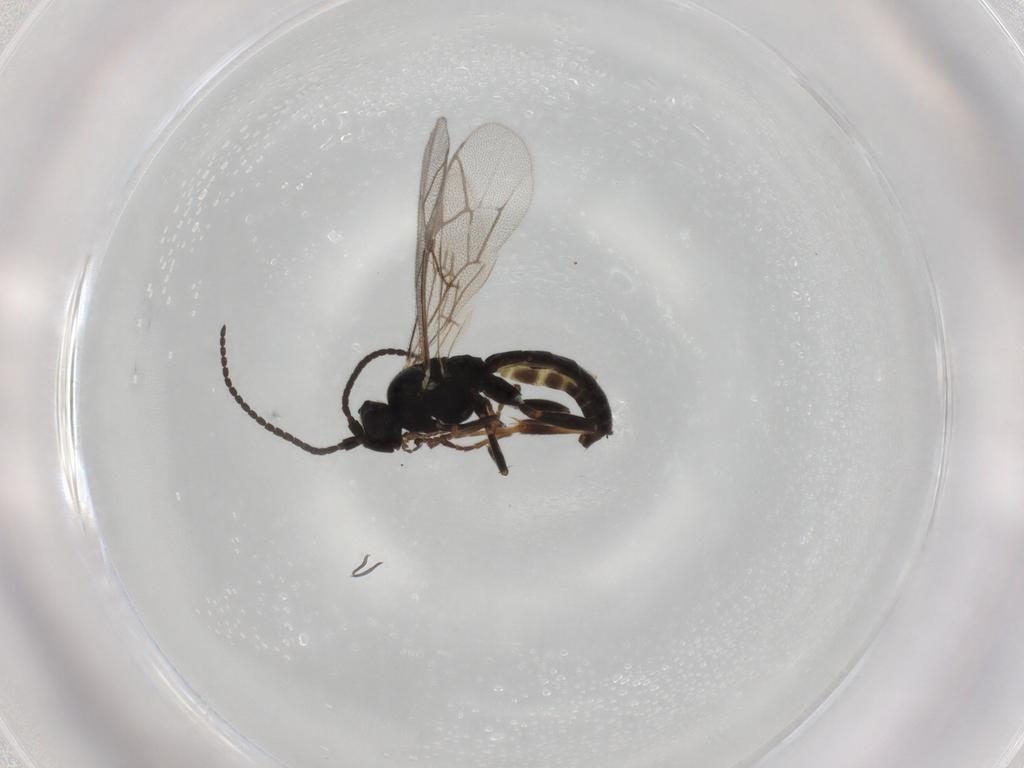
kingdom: Animalia
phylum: Arthropoda
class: Insecta
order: Hymenoptera
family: Ichneumonidae
